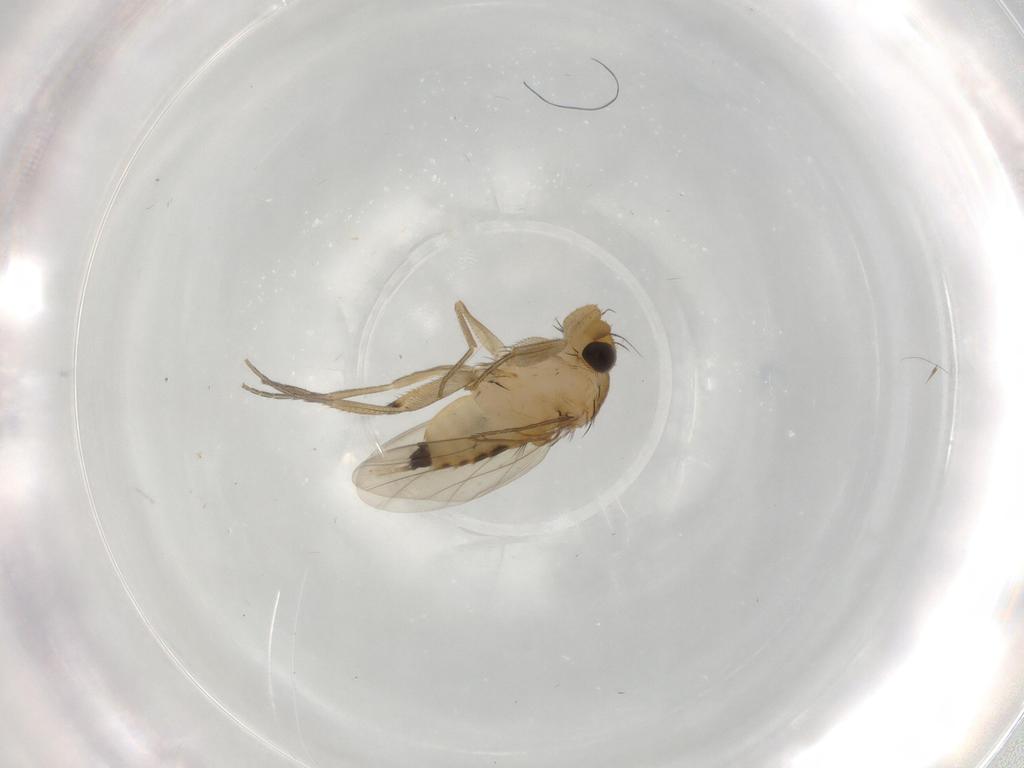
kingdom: Animalia
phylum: Arthropoda
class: Insecta
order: Diptera
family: Phoridae
